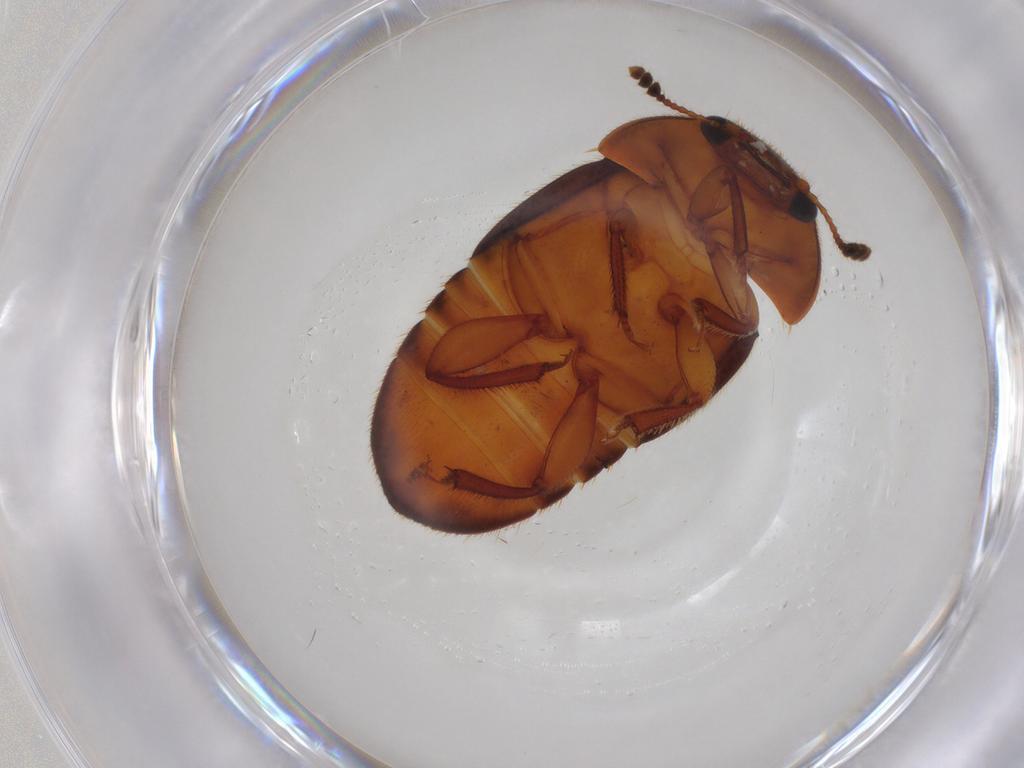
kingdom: Animalia
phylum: Arthropoda
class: Insecta
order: Coleoptera
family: Nitidulidae
